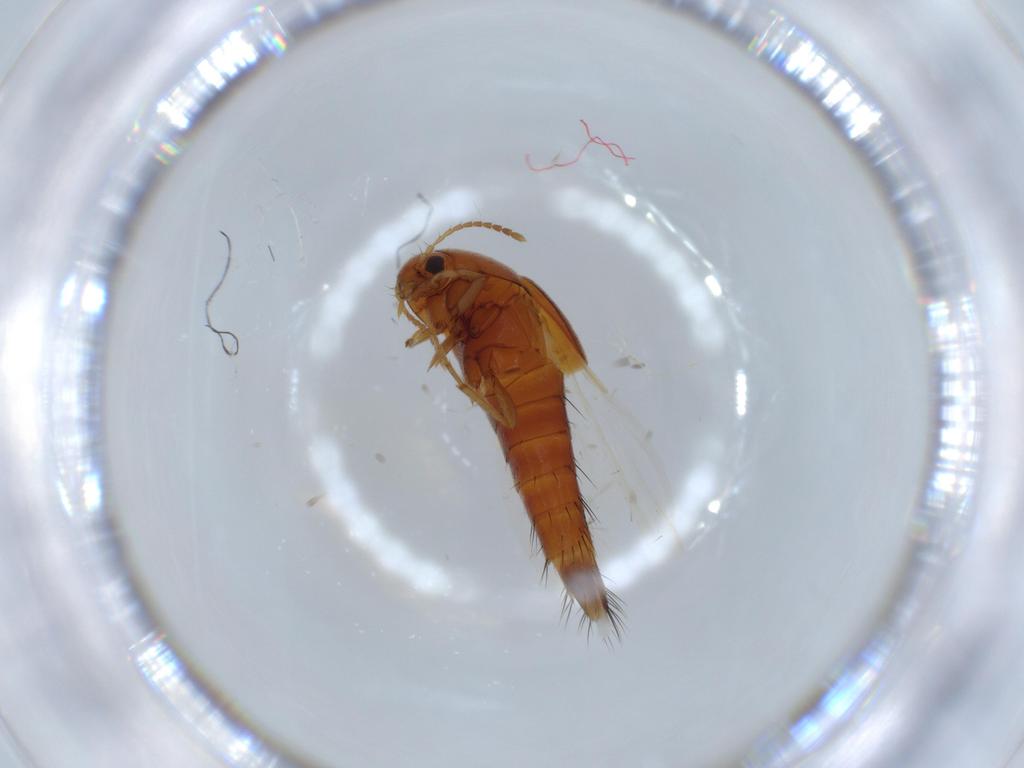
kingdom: Animalia
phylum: Arthropoda
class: Insecta
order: Coleoptera
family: Staphylinidae
